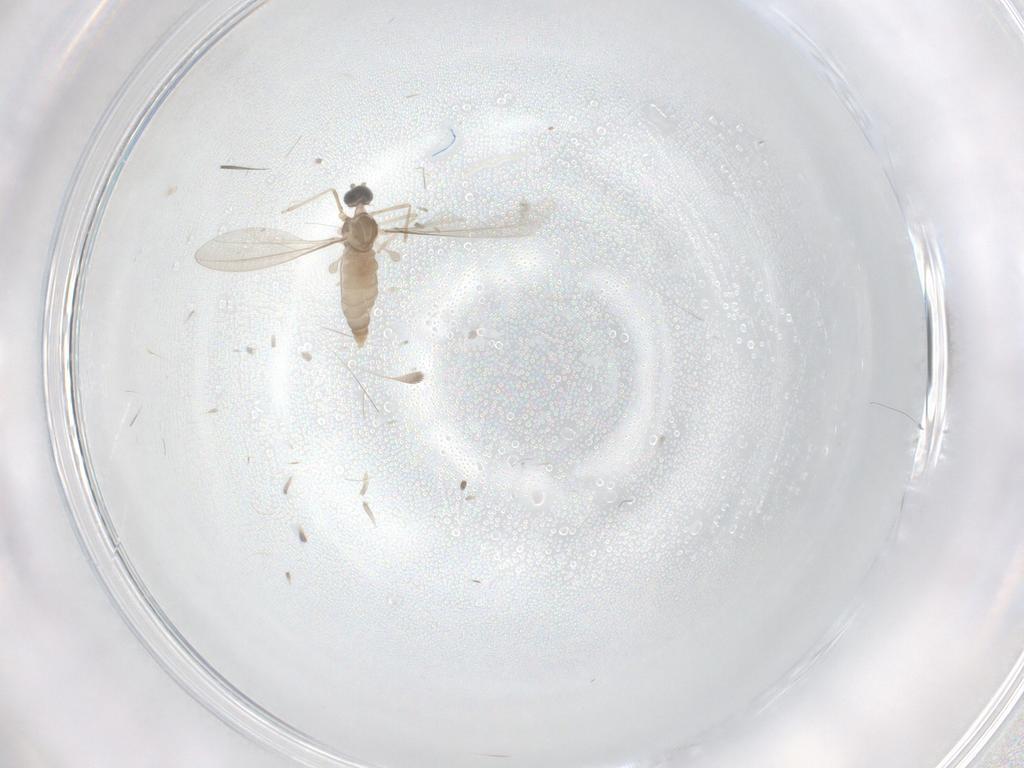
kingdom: Animalia
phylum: Arthropoda
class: Insecta
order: Diptera
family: Cecidomyiidae
